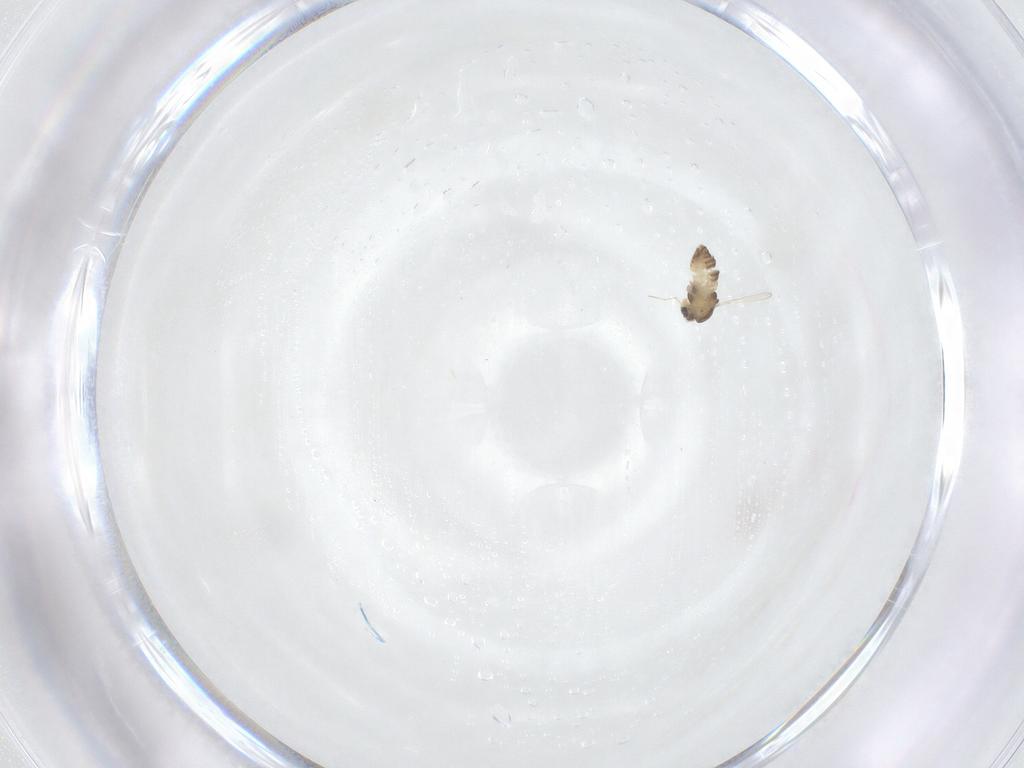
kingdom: Animalia
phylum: Arthropoda
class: Insecta
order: Diptera
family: Chironomidae
